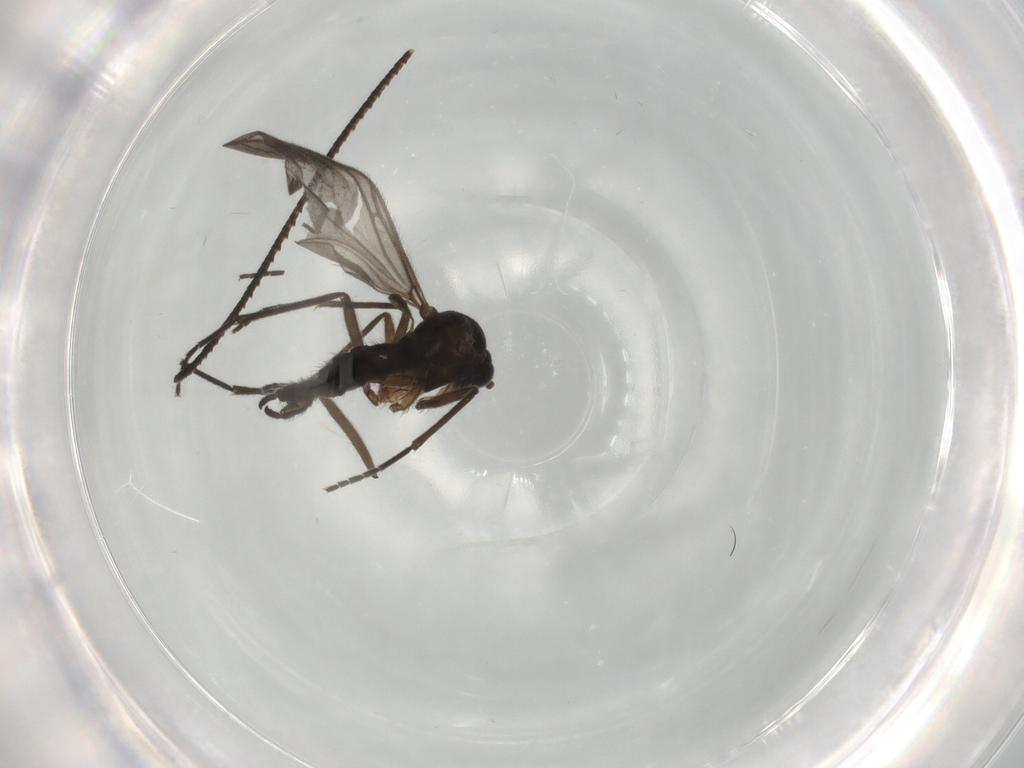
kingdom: Animalia
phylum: Arthropoda
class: Insecta
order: Diptera
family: Sciaridae
